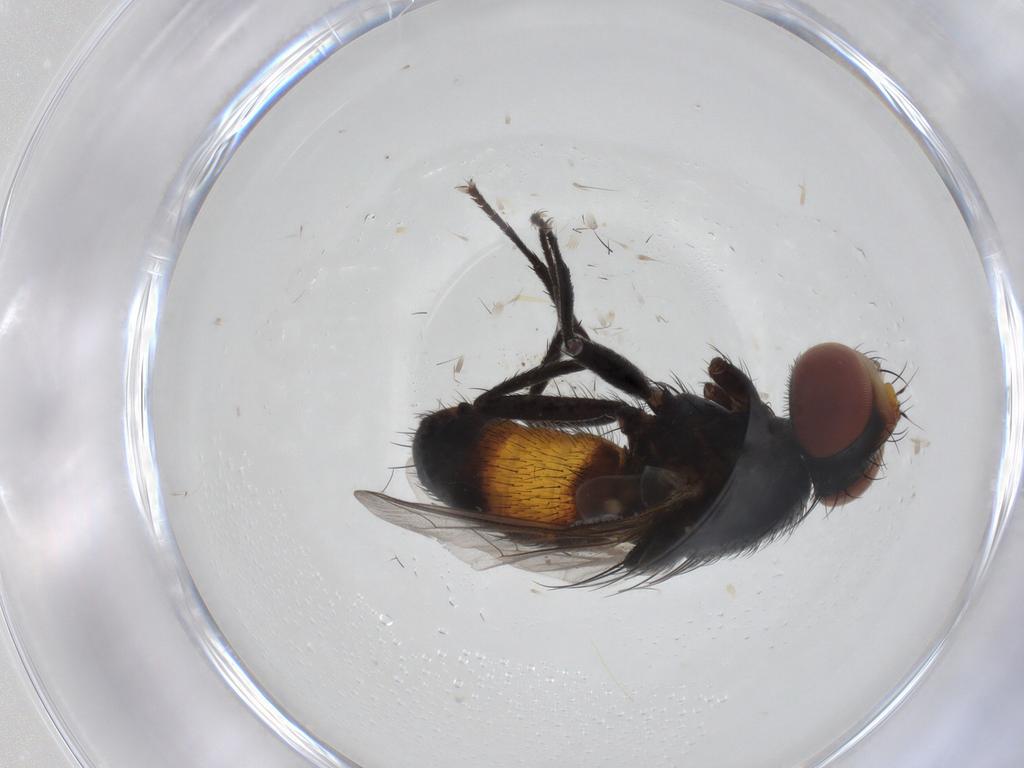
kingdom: Animalia
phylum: Arthropoda
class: Insecta
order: Diptera
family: Sarcophagidae
